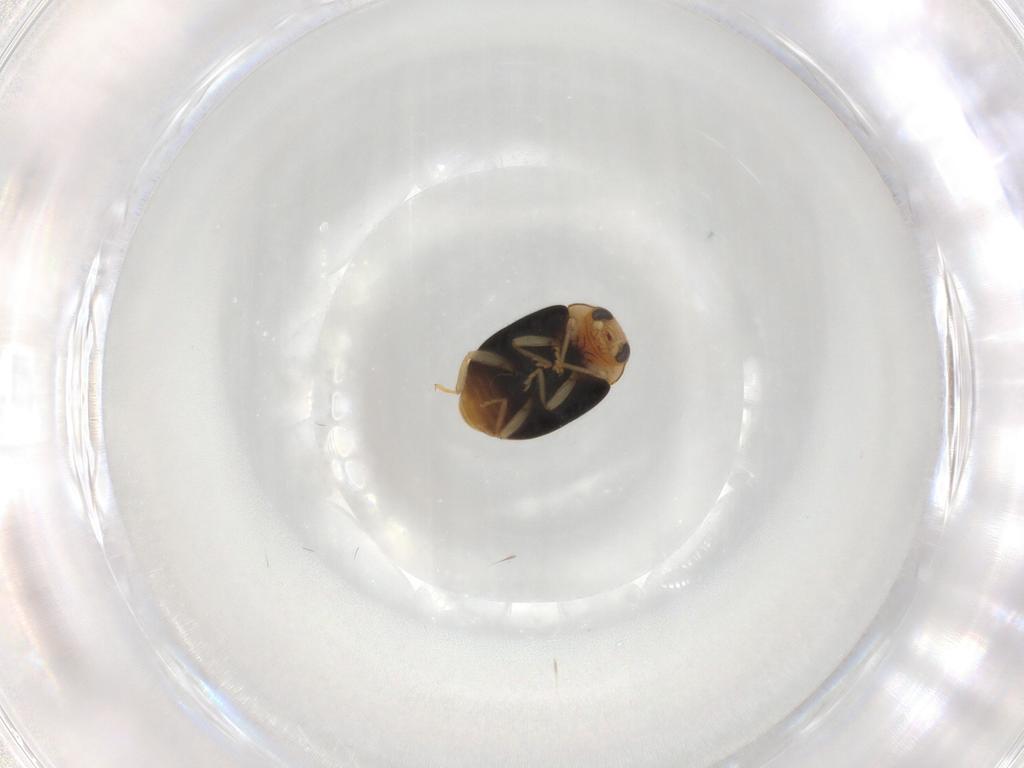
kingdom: Animalia
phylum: Arthropoda
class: Insecta
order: Coleoptera
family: Coccinellidae
